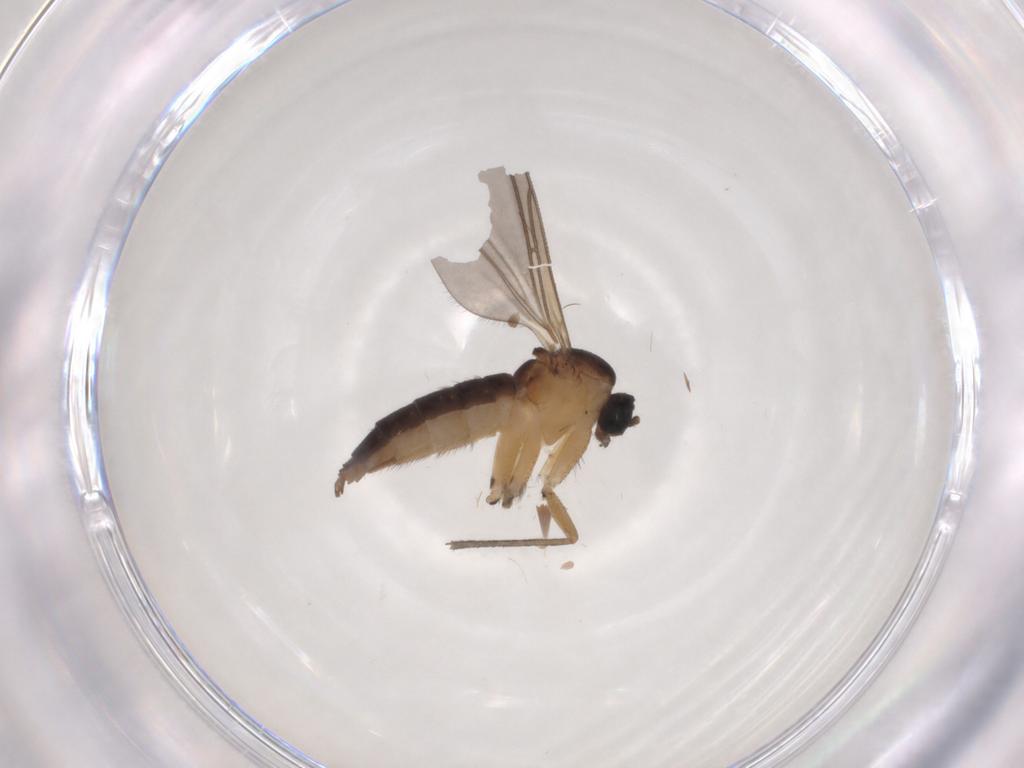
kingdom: Animalia
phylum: Arthropoda
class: Insecta
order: Diptera
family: Sciaridae
